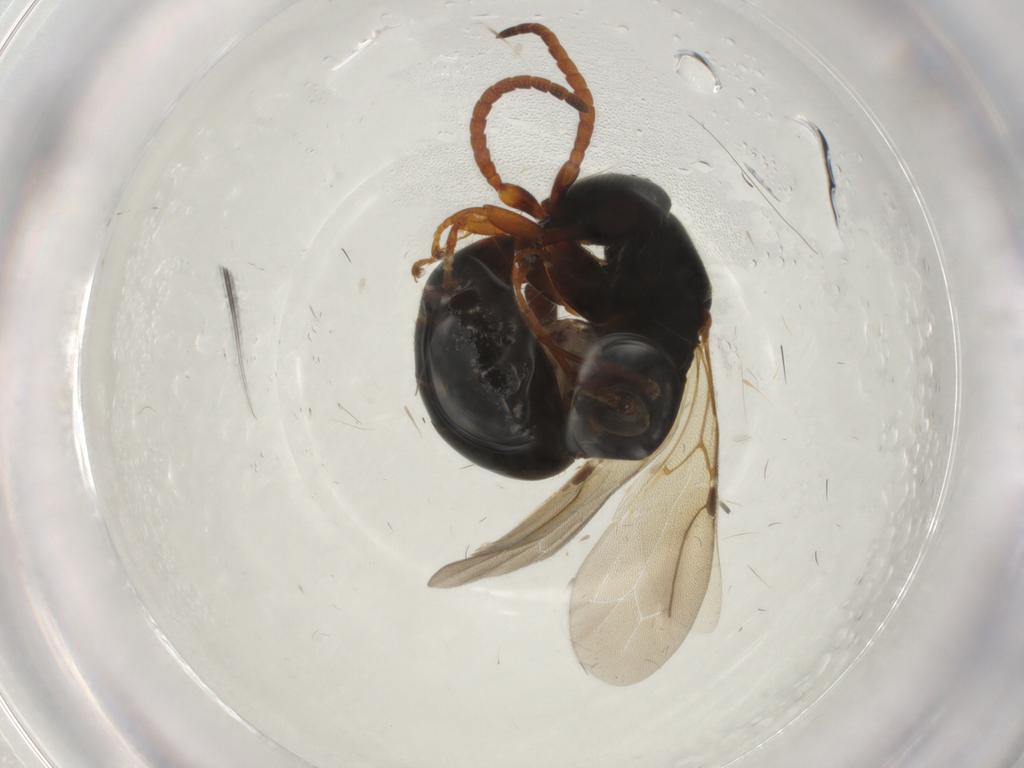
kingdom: Animalia
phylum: Arthropoda
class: Insecta
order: Hymenoptera
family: Bethylidae
